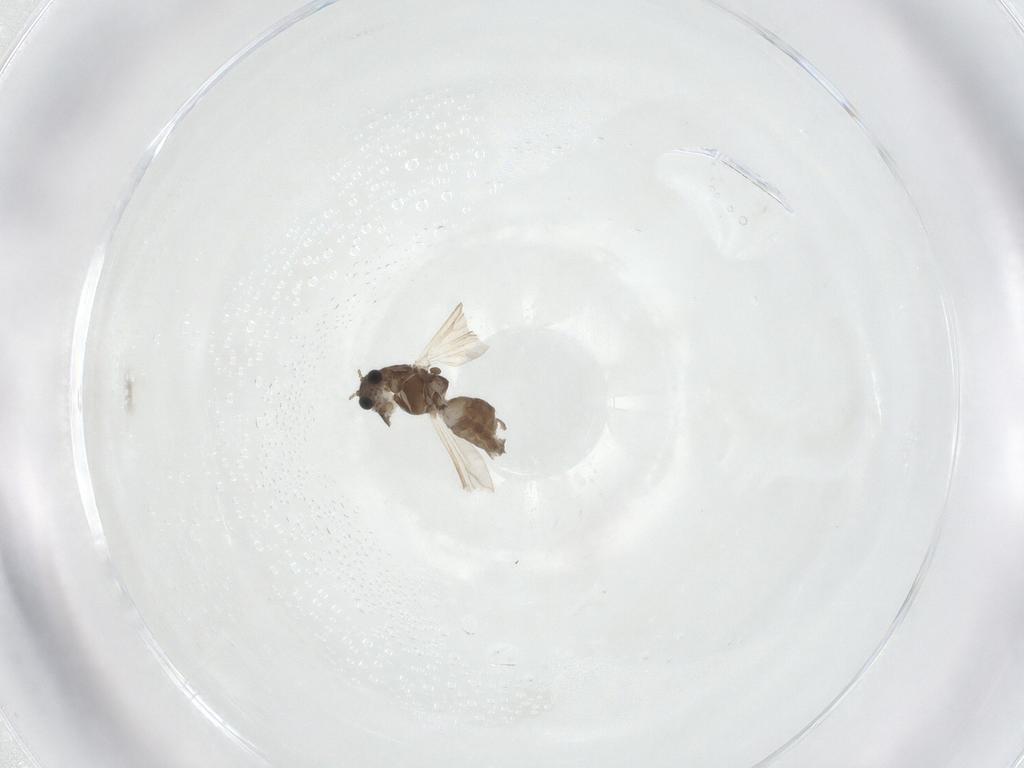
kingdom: Animalia
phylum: Arthropoda
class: Insecta
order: Diptera
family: Chironomidae
